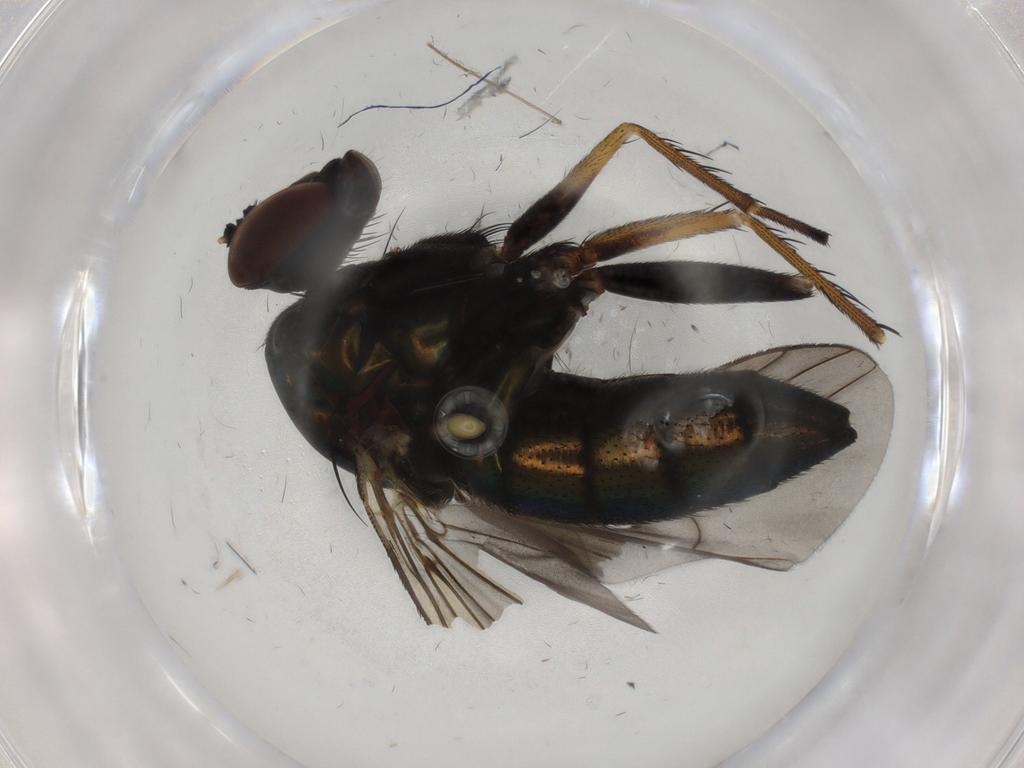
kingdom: Animalia
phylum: Arthropoda
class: Insecta
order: Diptera
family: Chironomidae
